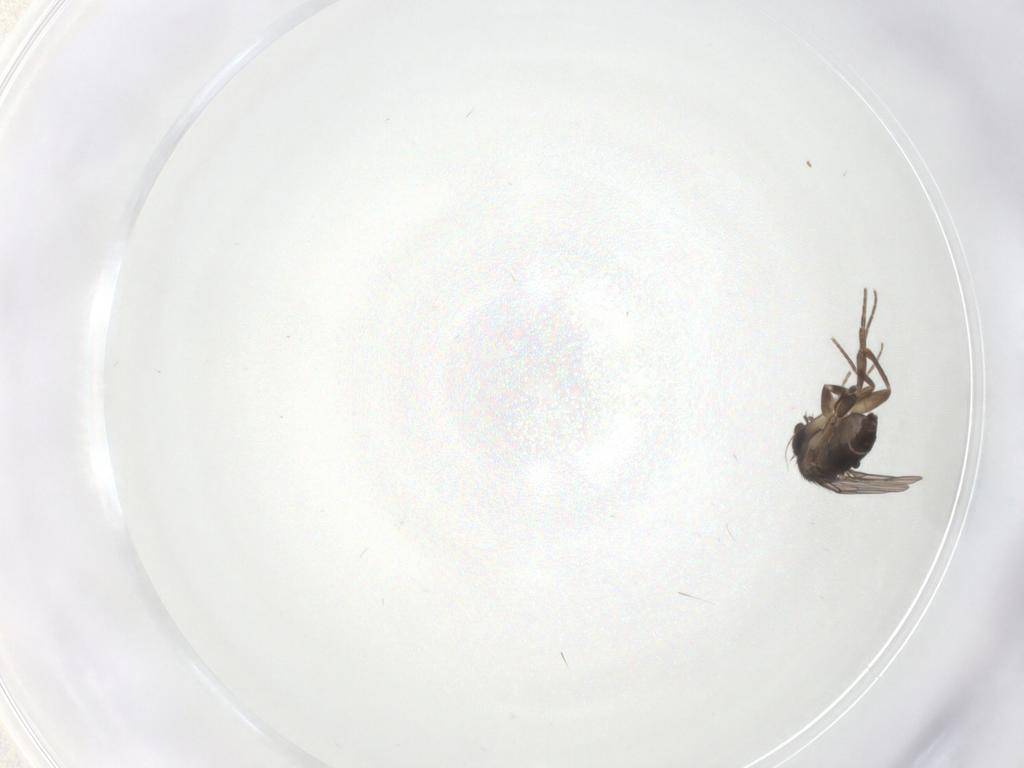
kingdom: Animalia
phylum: Arthropoda
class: Insecta
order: Diptera
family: Phoridae
